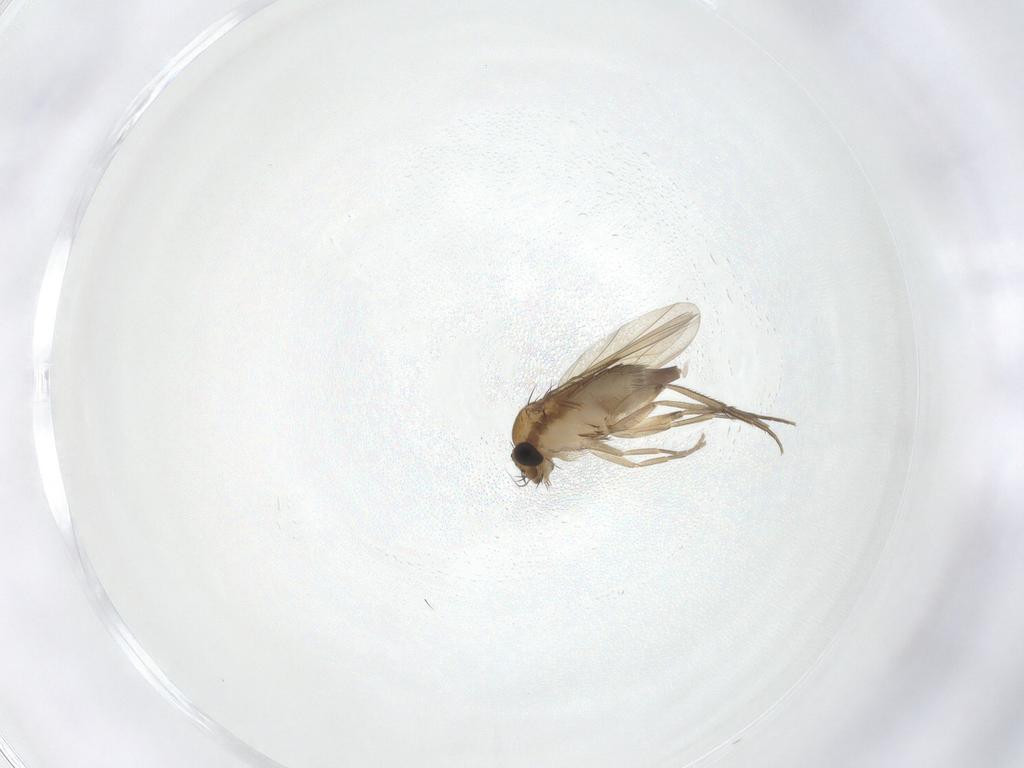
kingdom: Animalia
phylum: Arthropoda
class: Insecta
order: Diptera
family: Phoridae
